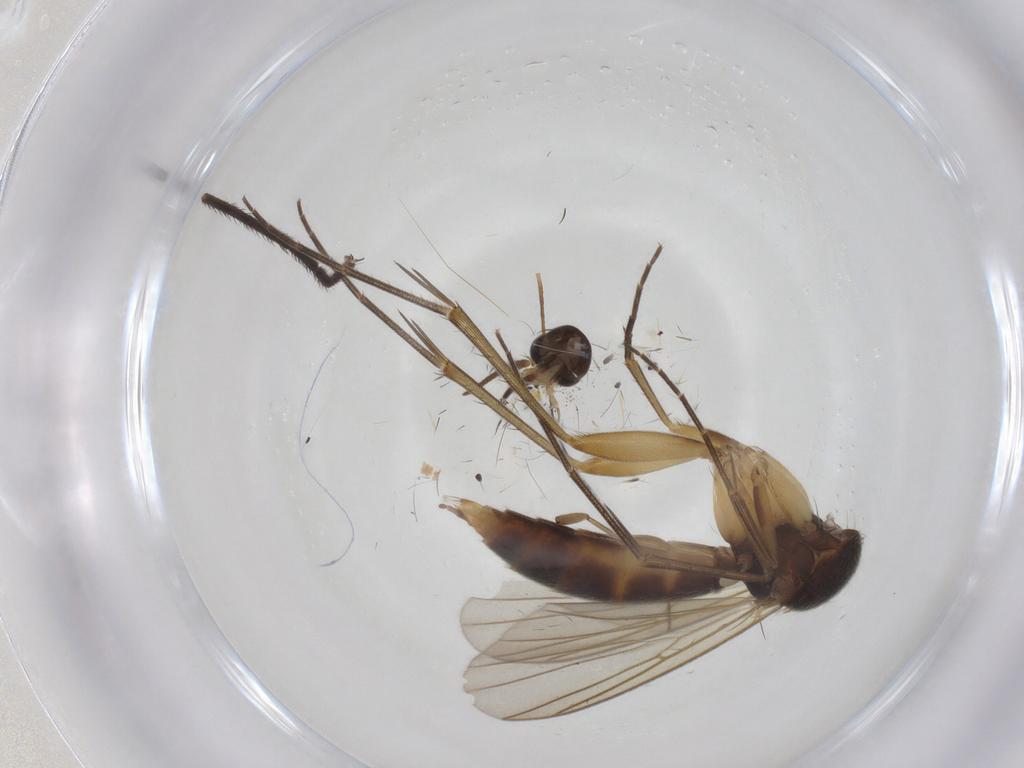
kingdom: Animalia
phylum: Arthropoda
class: Insecta
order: Diptera
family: Sciaridae
